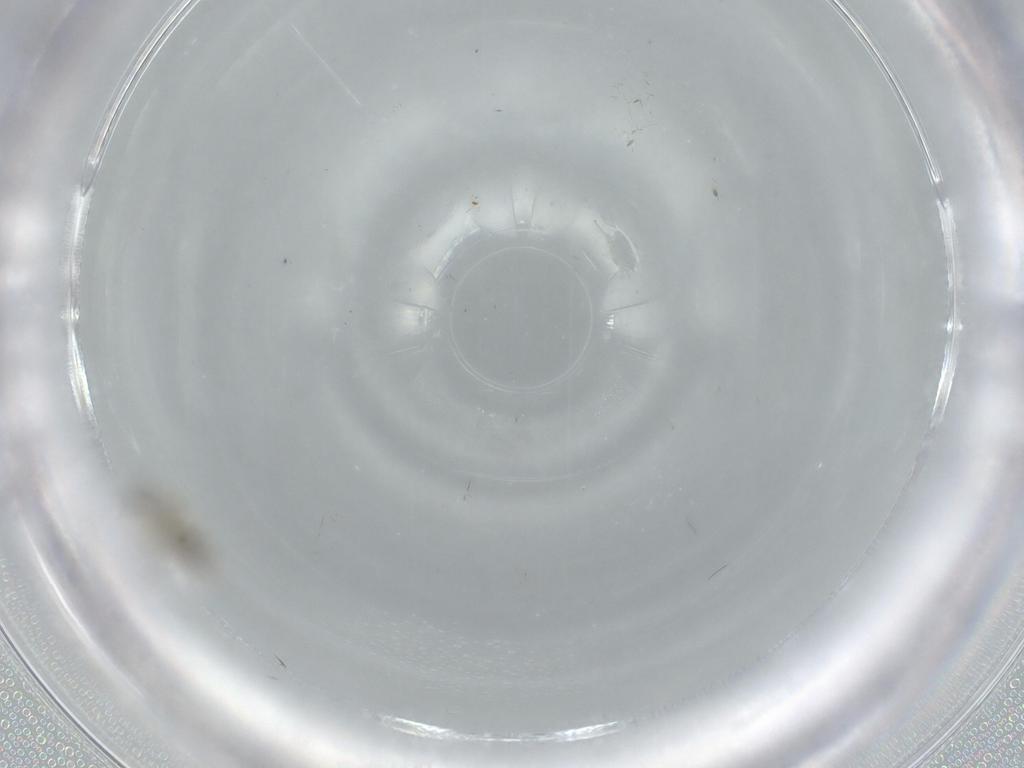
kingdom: Animalia
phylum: Arthropoda
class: Insecta
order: Diptera
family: Cecidomyiidae
